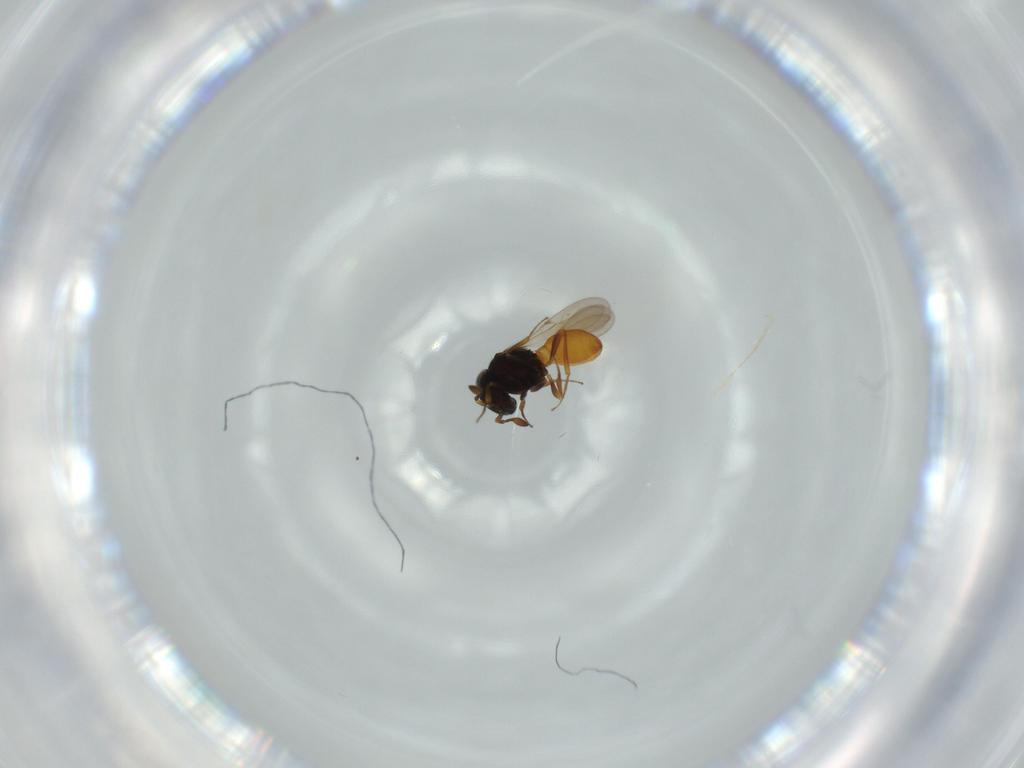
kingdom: Animalia
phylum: Arthropoda
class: Insecta
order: Hymenoptera
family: Scelionidae
